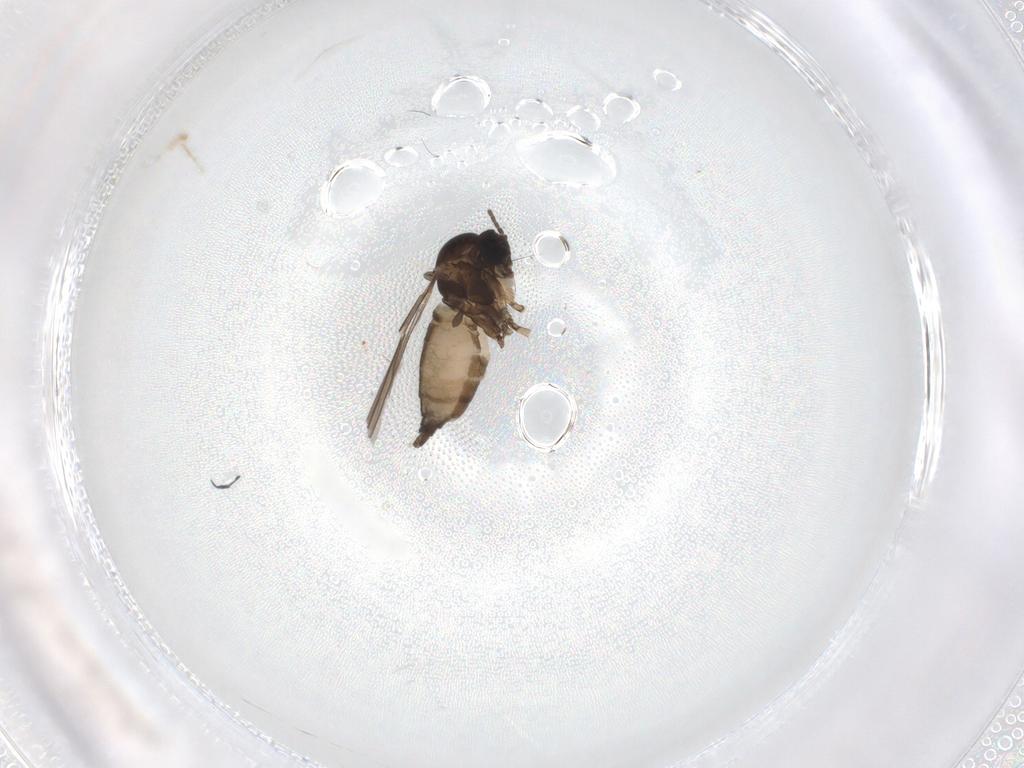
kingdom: Animalia
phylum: Arthropoda
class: Insecta
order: Diptera
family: Sciaridae
